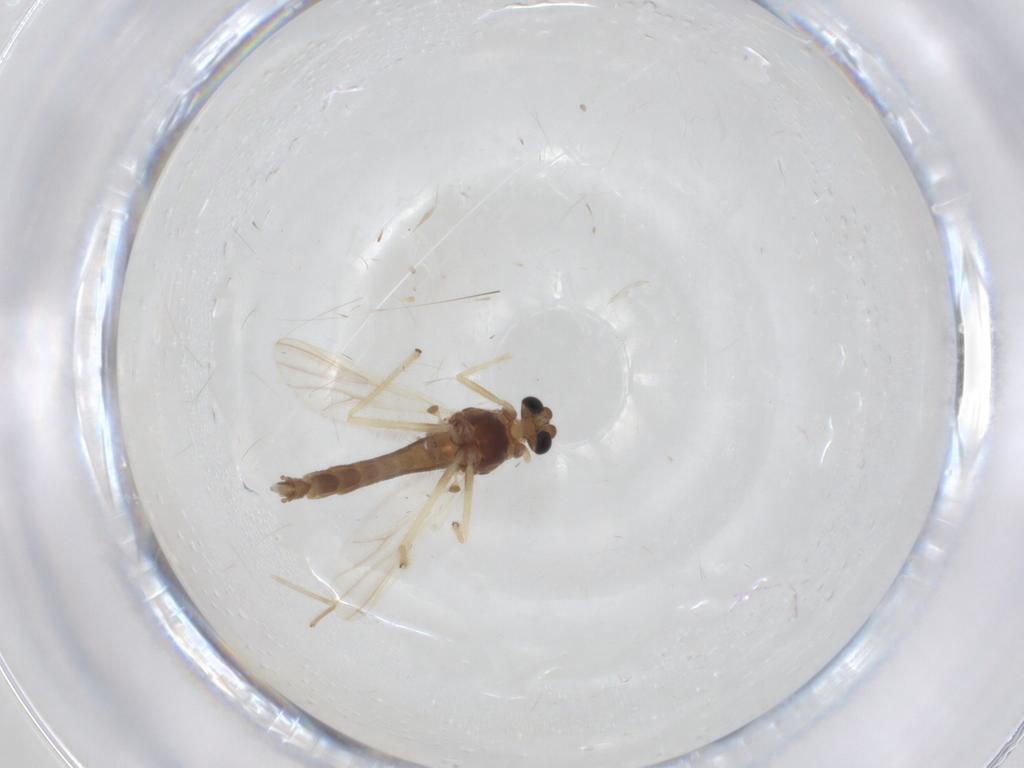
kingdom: Animalia
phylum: Arthropoda
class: Insecta
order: Diptera
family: Chironomidae
